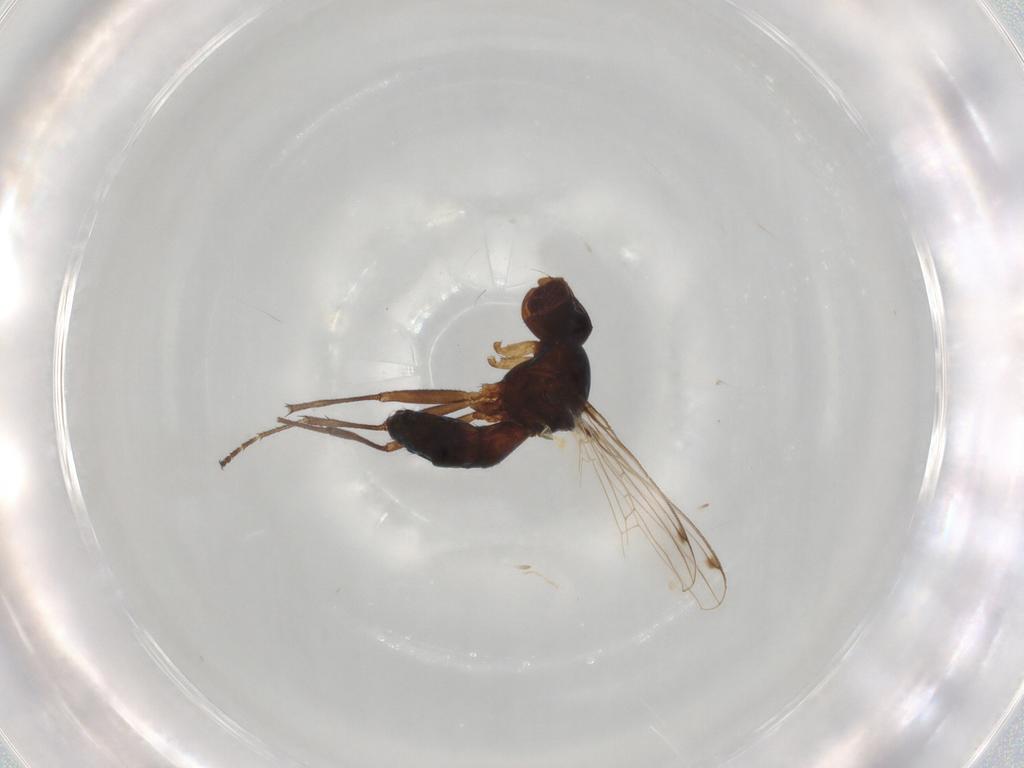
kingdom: Animalia
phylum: Arthropoda
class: Insecta
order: Diptera
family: Sepsidae
